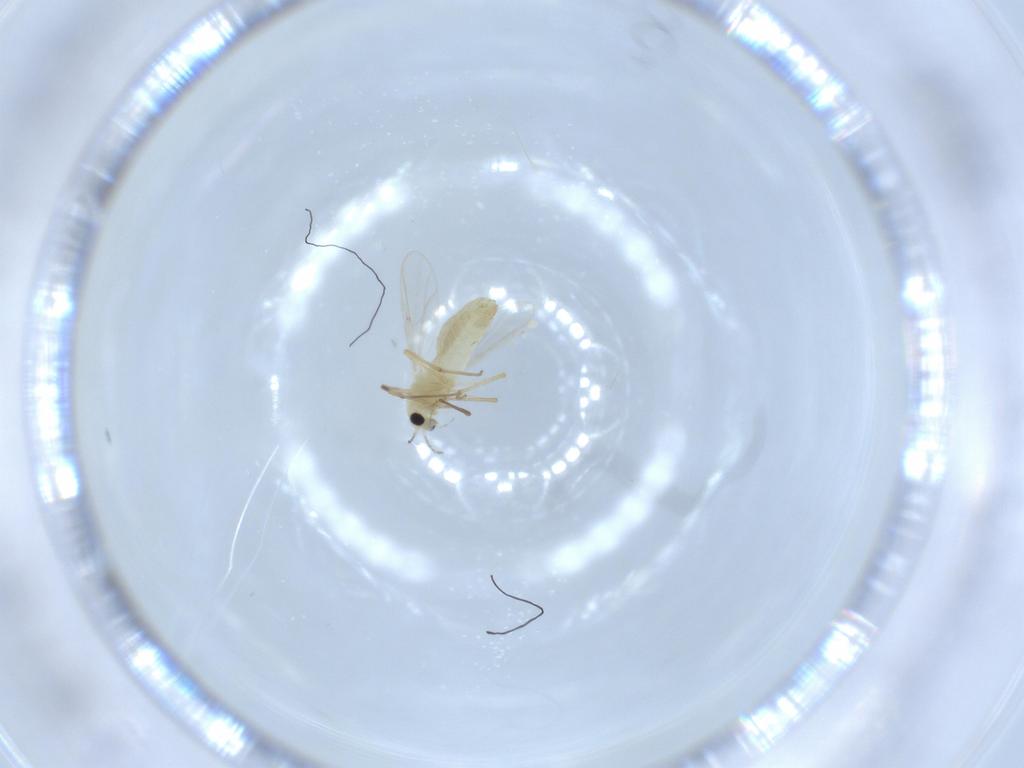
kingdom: Animalia
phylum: Arthropoda
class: Insecta
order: Diptera
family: Chironomidae
